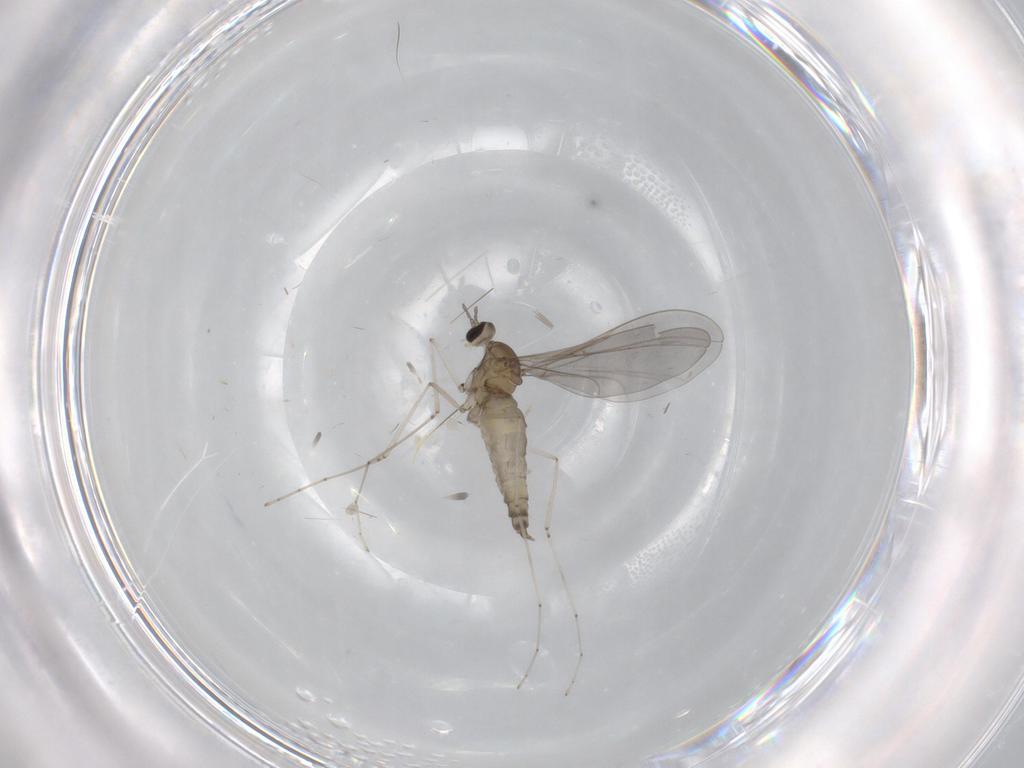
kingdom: Animalia
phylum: Arthropoda
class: Insecta
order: Diptera
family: Cecidomyiidae
